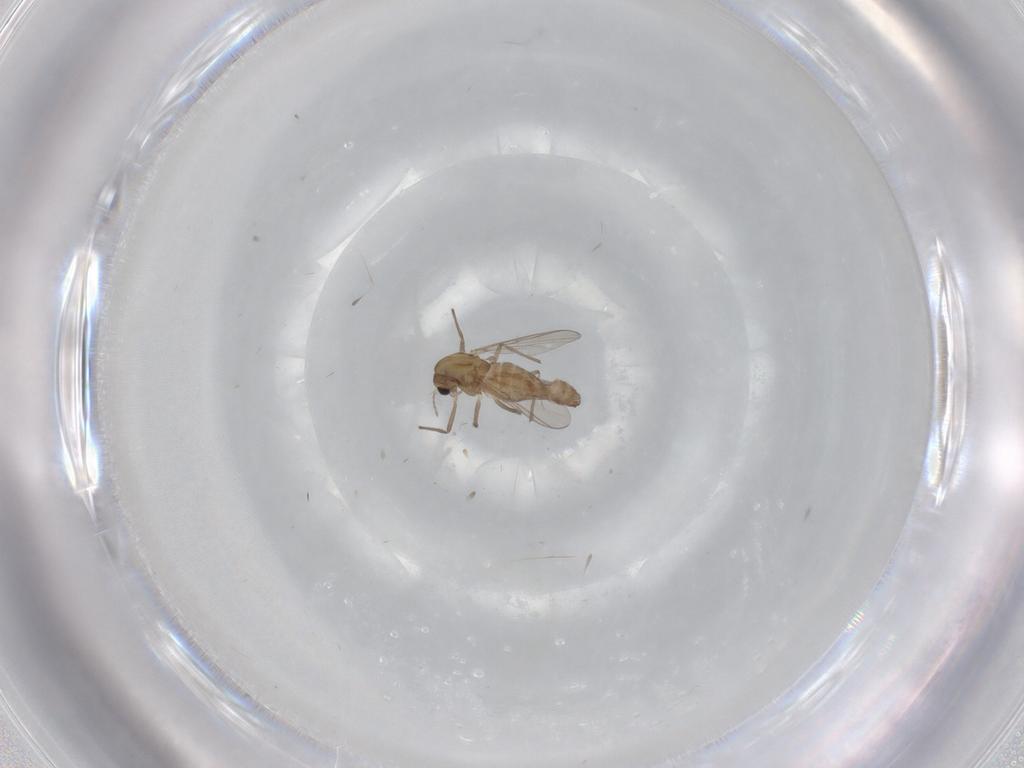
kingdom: Animalia
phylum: Arthropoda
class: Insecta
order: Diptera
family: Chironomidae
